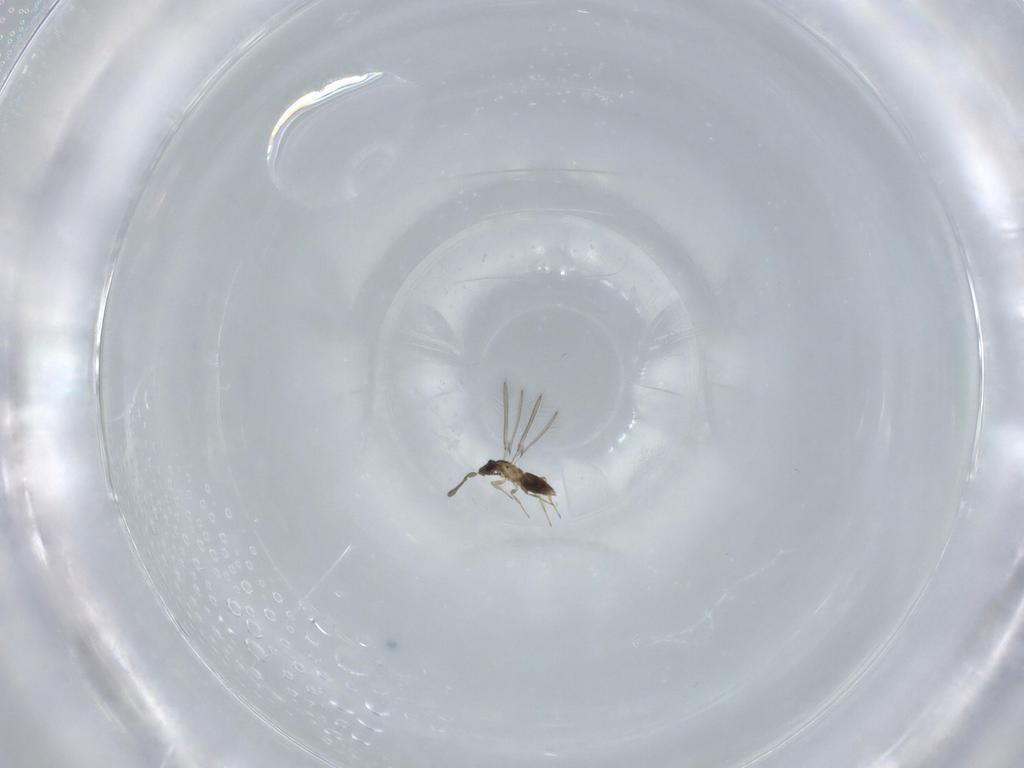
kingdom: Animalia
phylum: Arthropoda
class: Insecta
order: Hymenoptera
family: Mymaridae
